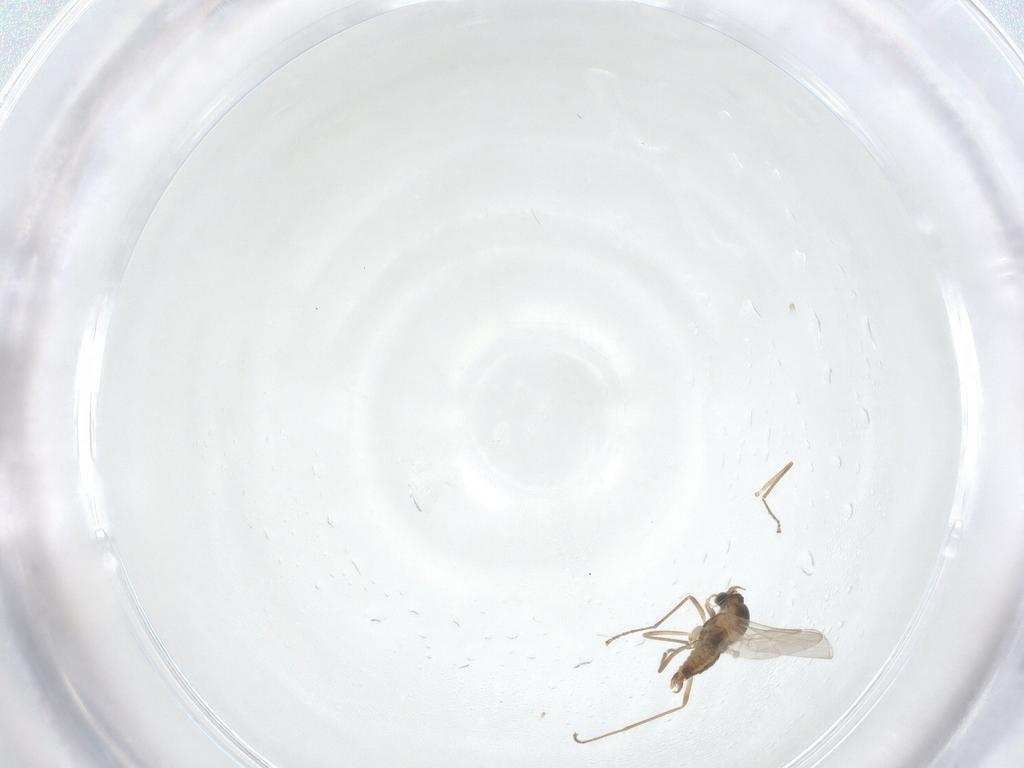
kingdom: Animalia
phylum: Arthropoda
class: Insecta
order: Diptera
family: Cecidomyiidae
